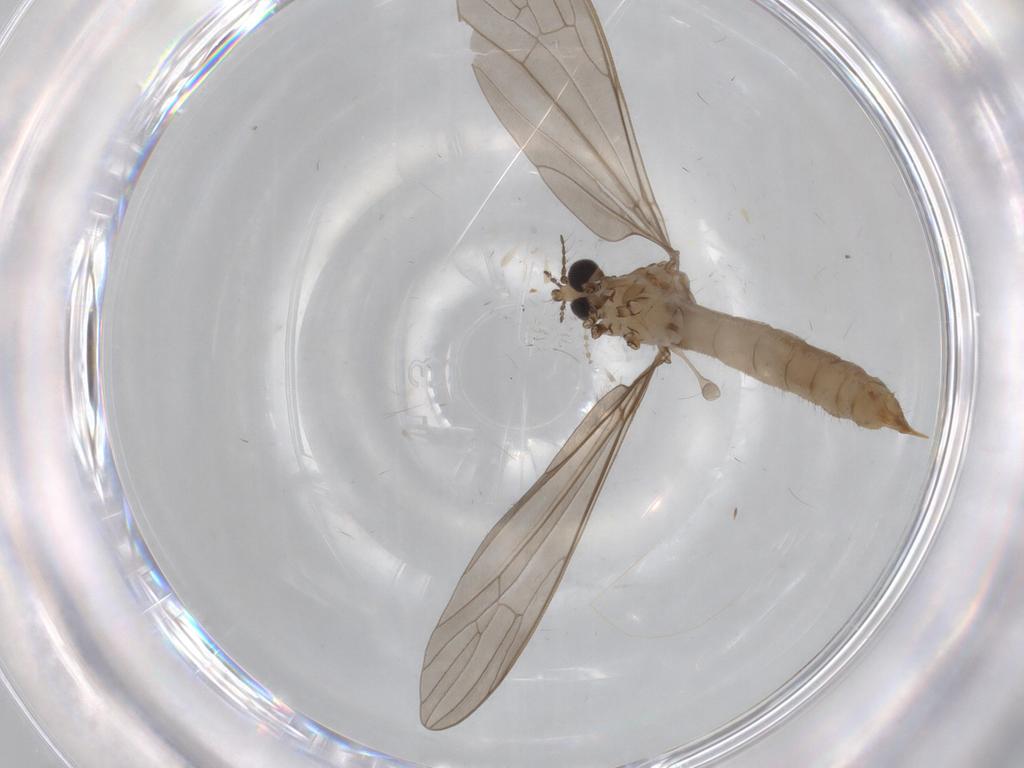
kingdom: Animalia
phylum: Arthropoda
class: Insecta
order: Diptera
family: Limoniidae
